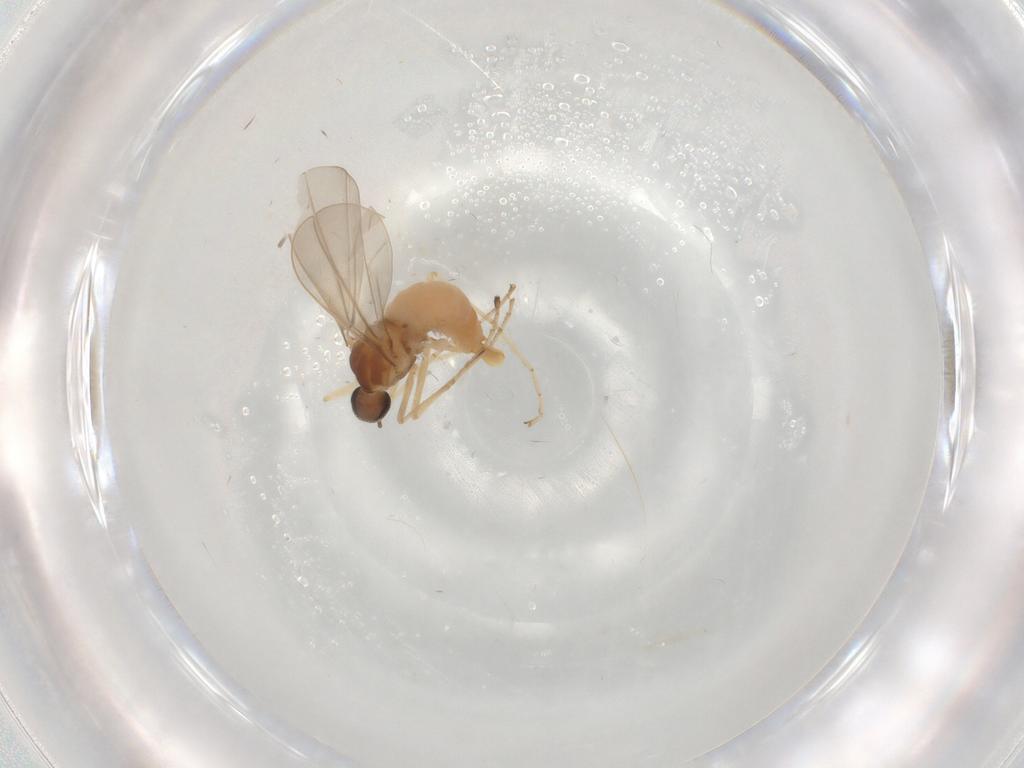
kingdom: Animalia
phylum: Arthropoda
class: Insecta
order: Diptera
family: Cecidomyiidae
